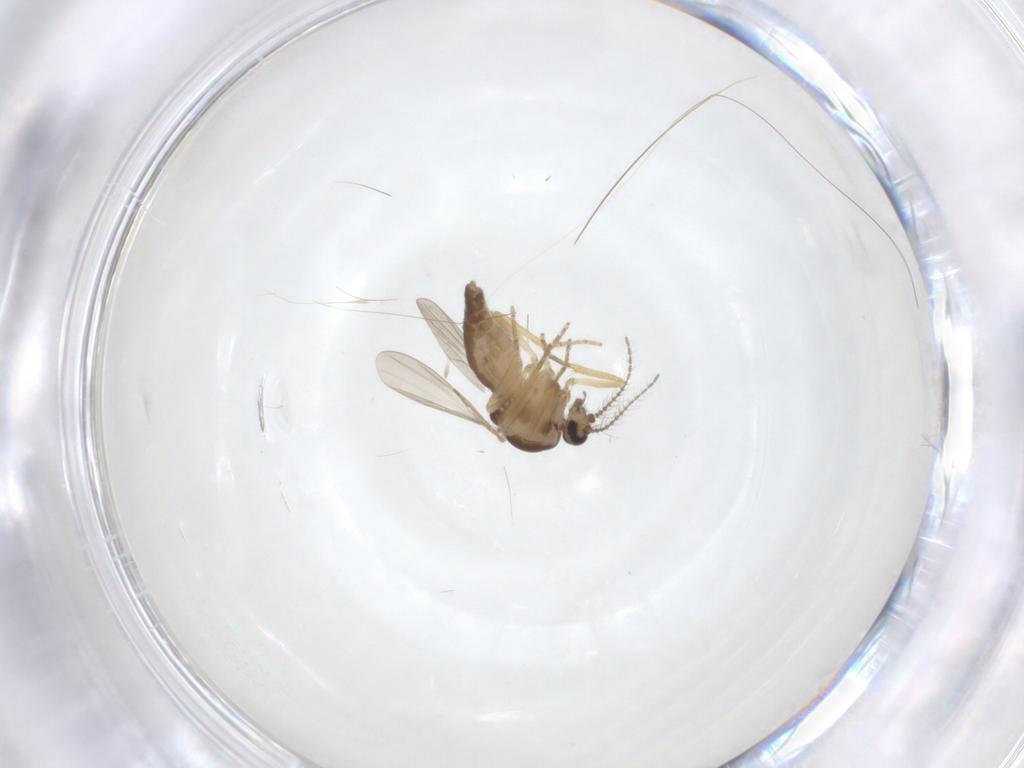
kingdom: Animalia
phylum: Arthropoda
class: Insecta
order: Diptera
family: Ceratopogonidae
